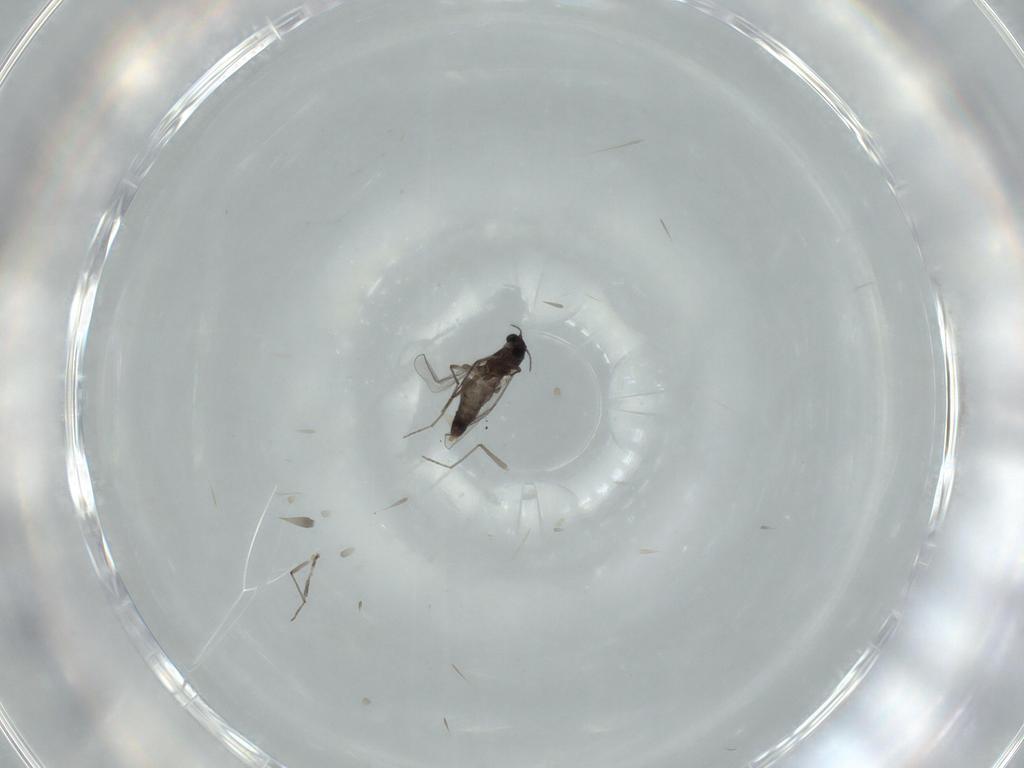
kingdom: Animalia
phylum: Arthropoda
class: Insecta
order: Diptera
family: Chironomidae
